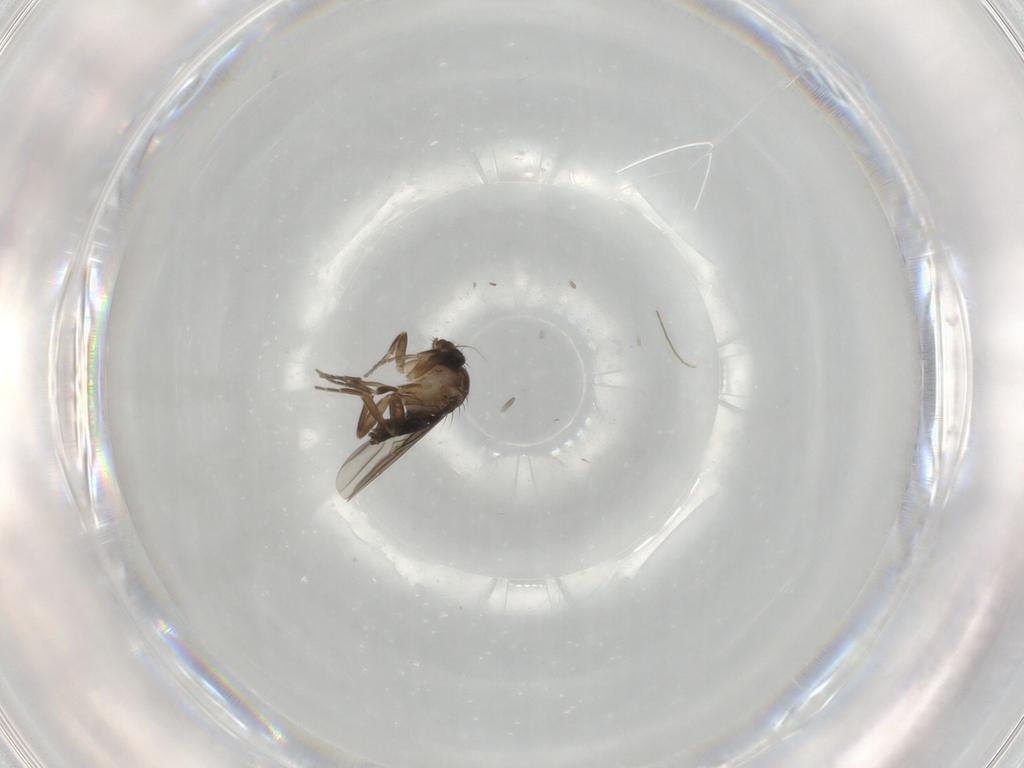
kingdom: Animalia
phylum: Arthropoda
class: Insecta
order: Diptera
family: Phoridae
